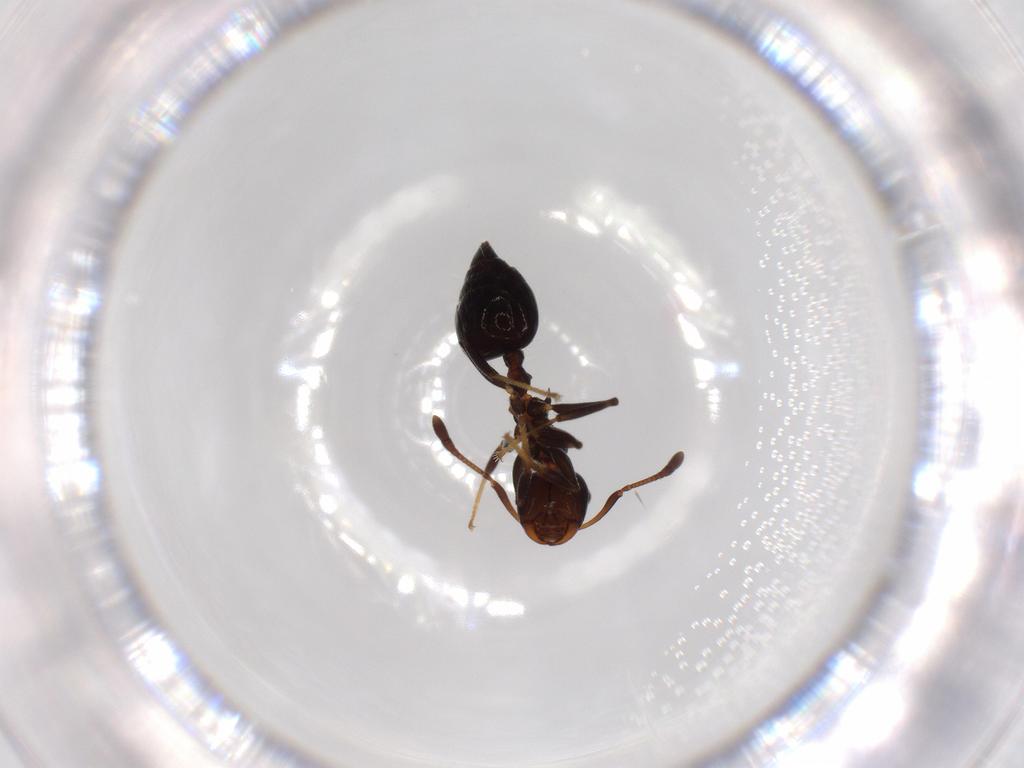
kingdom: Animalia
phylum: Arthropoda
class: Insecta
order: Hymenoptera
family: Formicidae
